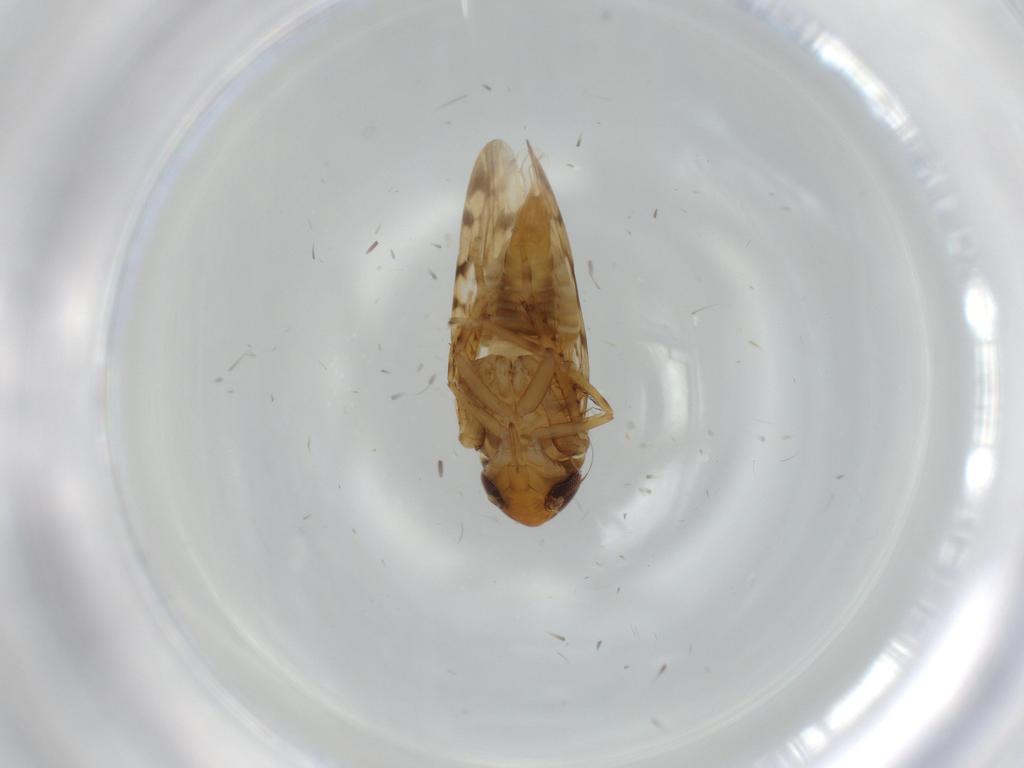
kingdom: Animalia
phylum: Arthropoda
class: Insecta
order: Hemiptera
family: Cicadellidae
